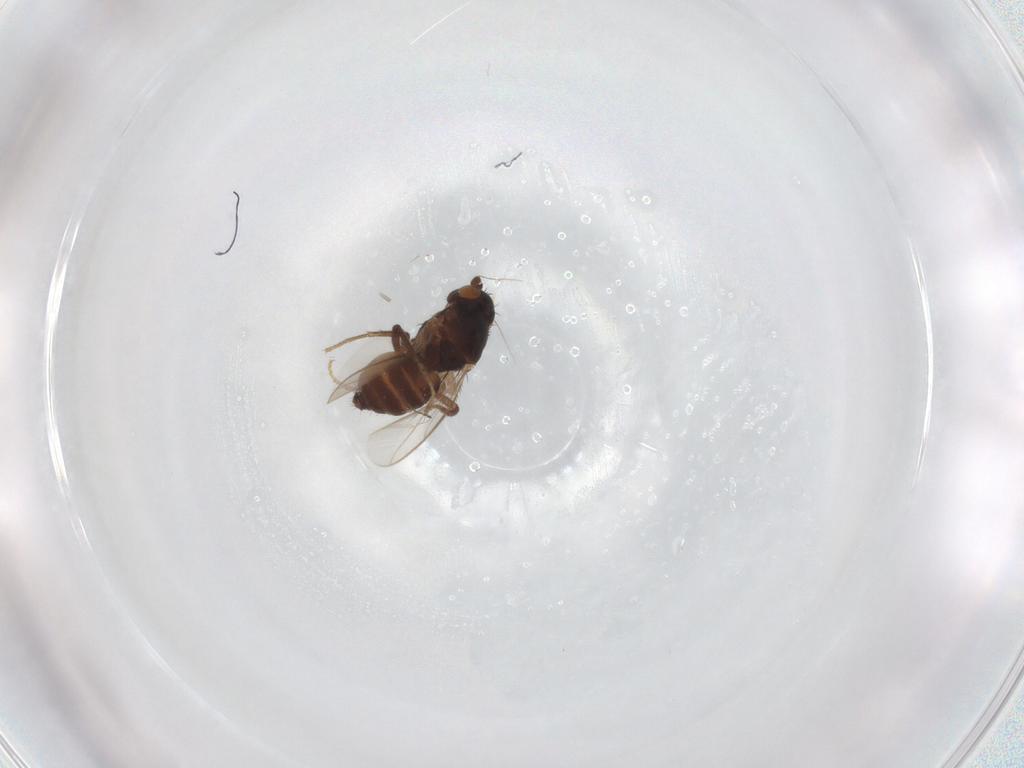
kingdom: Animalia
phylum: Arthropoda
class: Insecta
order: Diptera
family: Sphaeroceridae
